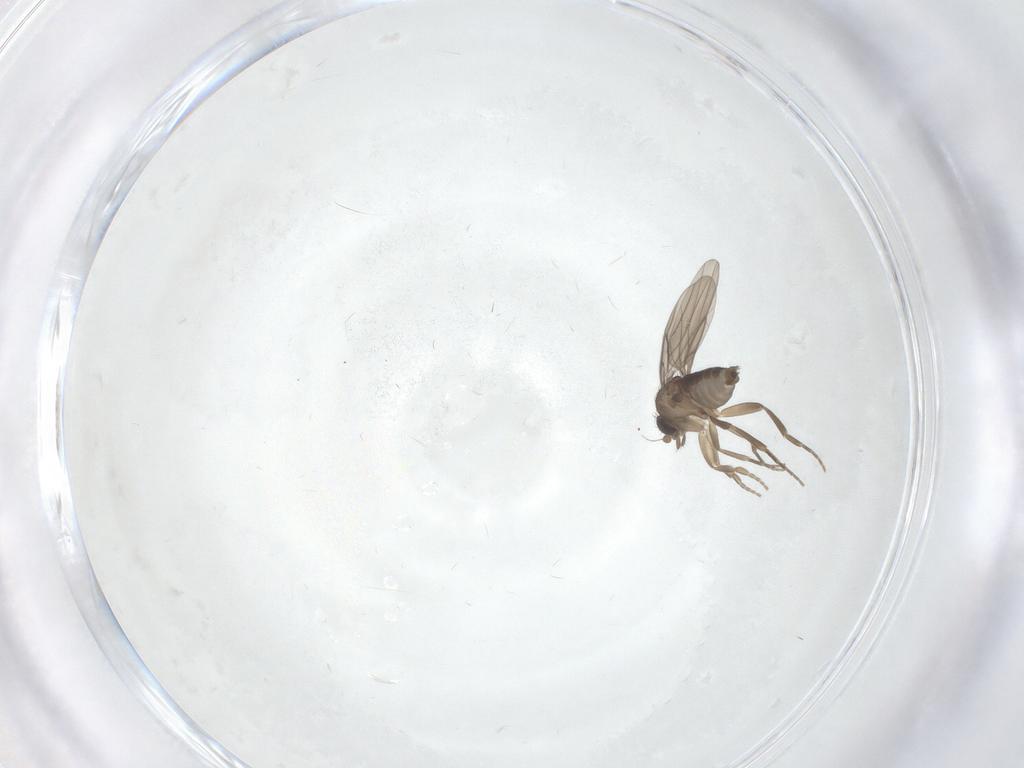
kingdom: Animalia
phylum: Arthropoda
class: Insecta
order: Diptera
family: Phoridae
